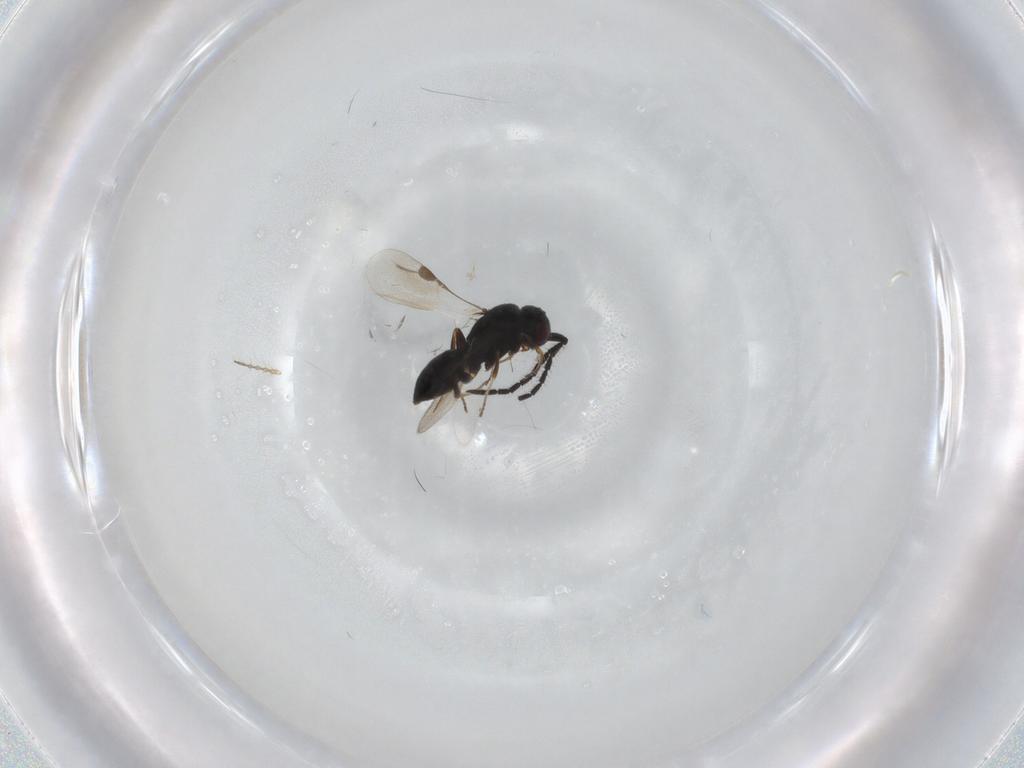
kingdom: Animalia
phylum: Arthropoda
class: Insecta
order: Hymenoptera
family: Megaspilidae
